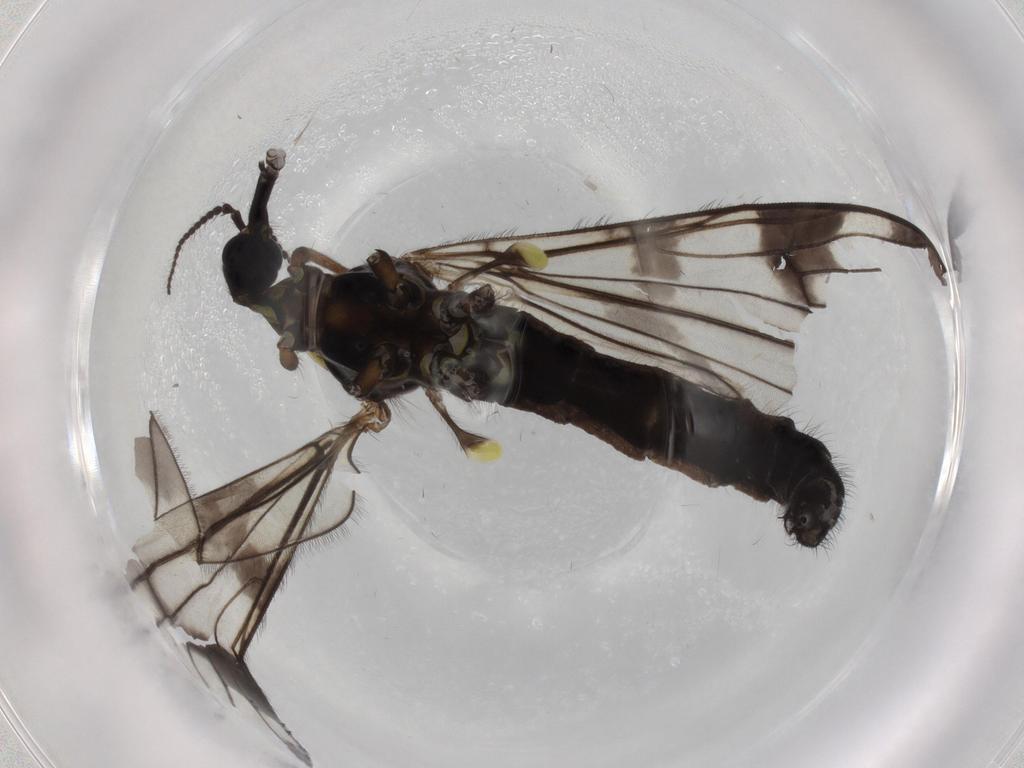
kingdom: Animalia
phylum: Arthropoda
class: Insecta
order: Diptera
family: Limoniidae
